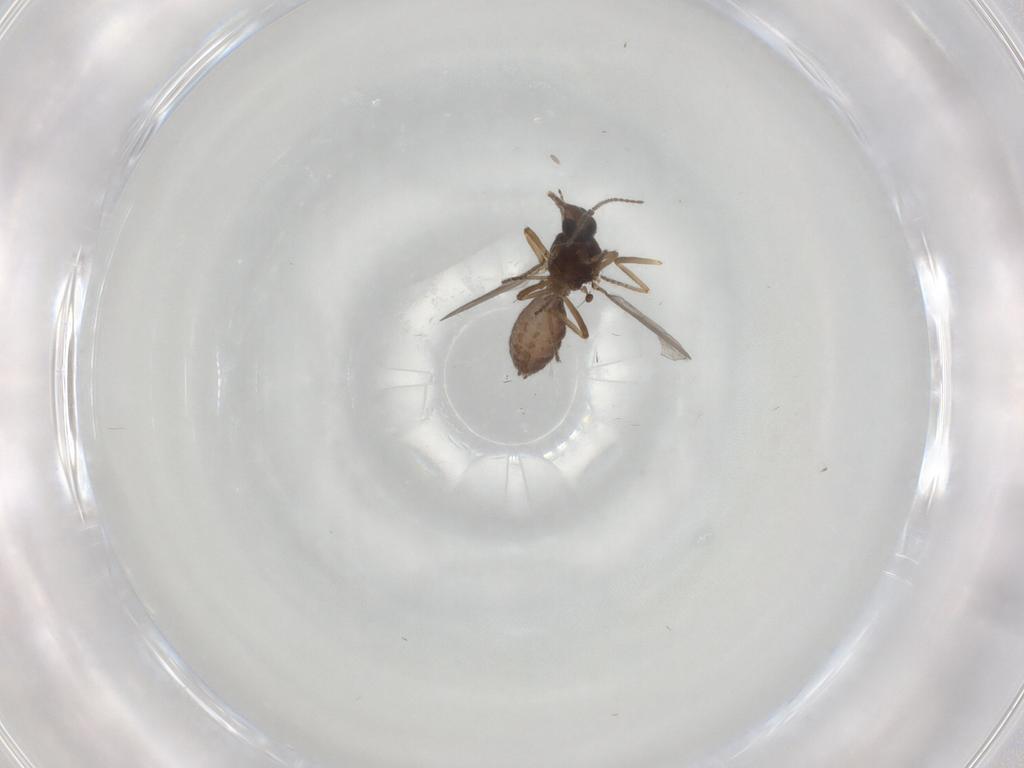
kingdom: Animalia
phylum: Arthropoda
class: Insecta
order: Diptera
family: Ceratopogonidae
